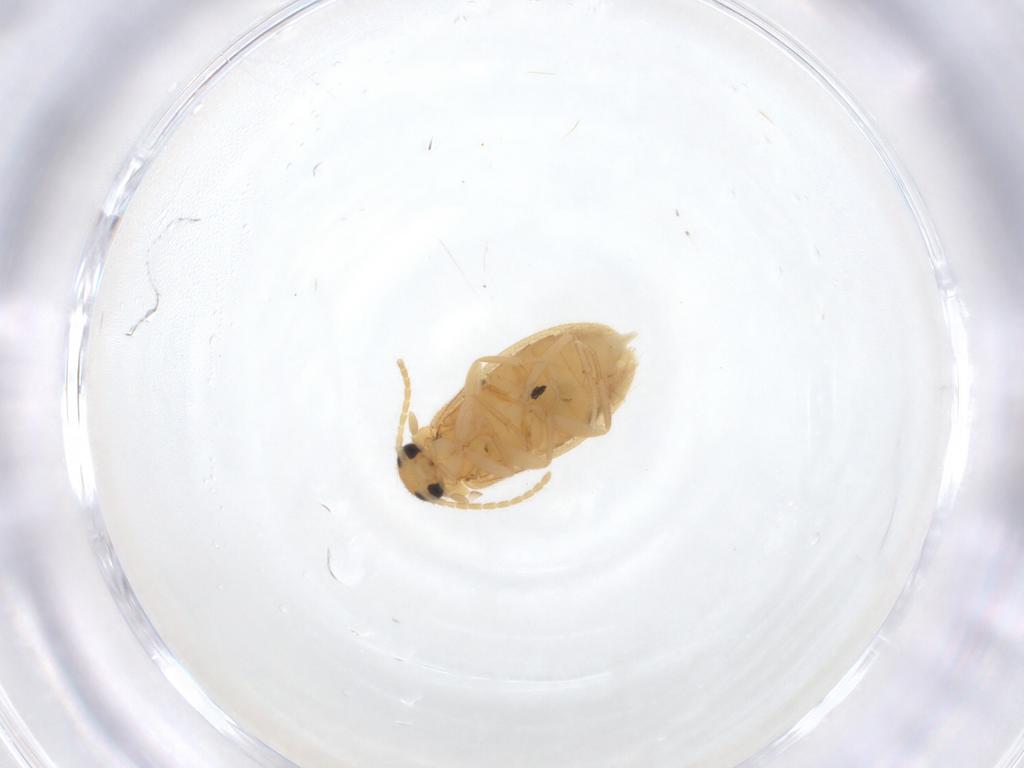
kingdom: Animalia
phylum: Arthropoda
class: Insecta
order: Coleoptera
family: Scraptiidae
